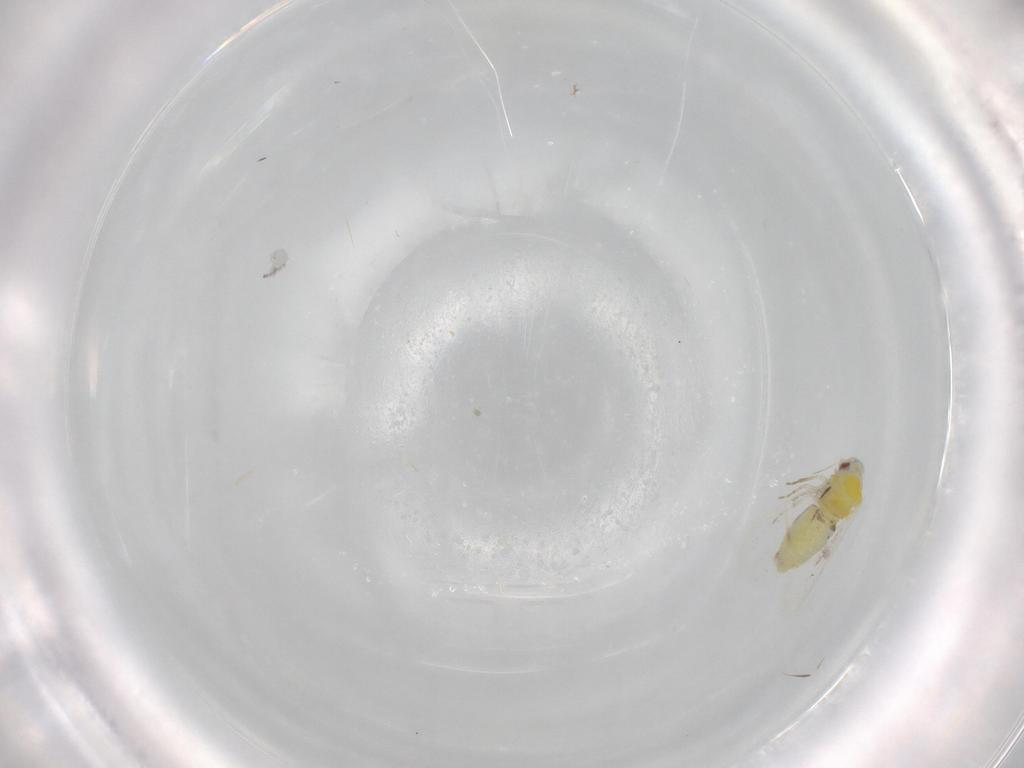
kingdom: Animalia
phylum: Arthropoda
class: Insecta
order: Hemiptera
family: Aleyrodidae
